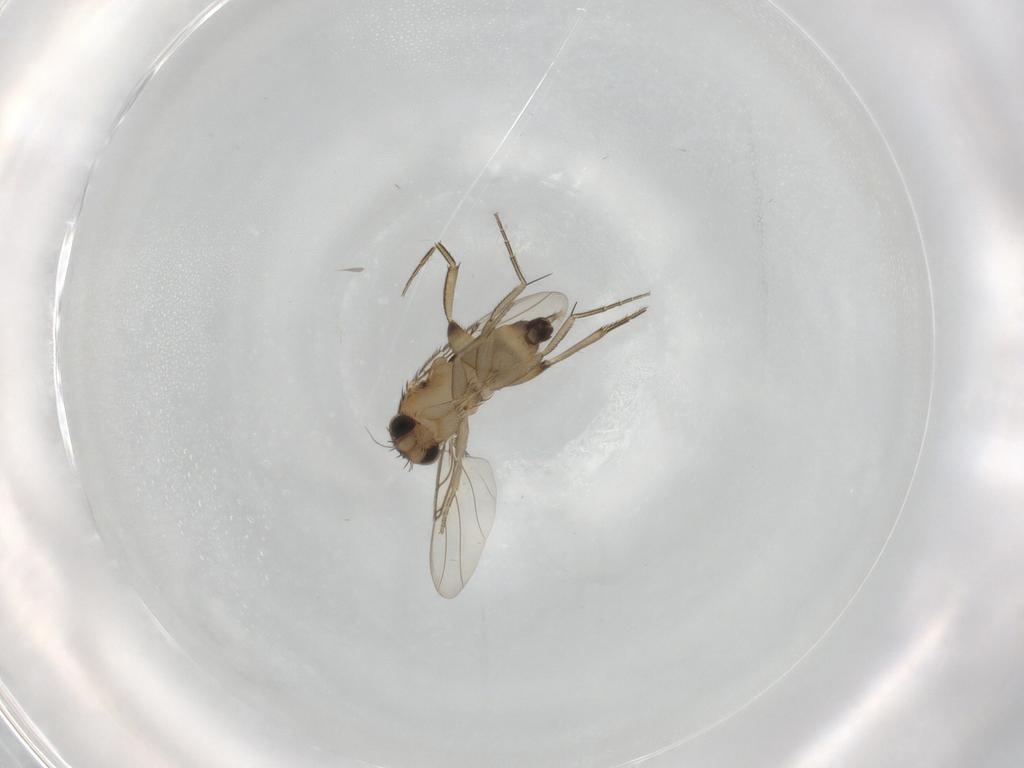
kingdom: Animalia
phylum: Arthropoda
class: Insecta
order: Diptera
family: Phoridae
